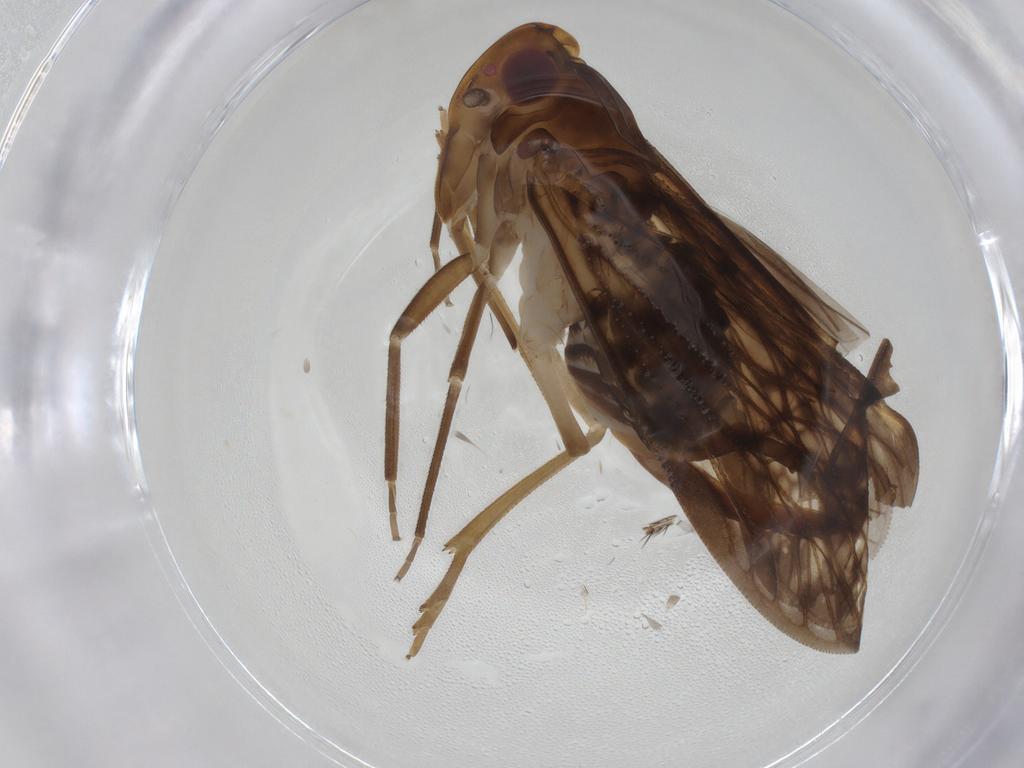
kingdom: Animalia
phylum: Arthropoda
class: Insecta
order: Hemiptera
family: Cixiidae
